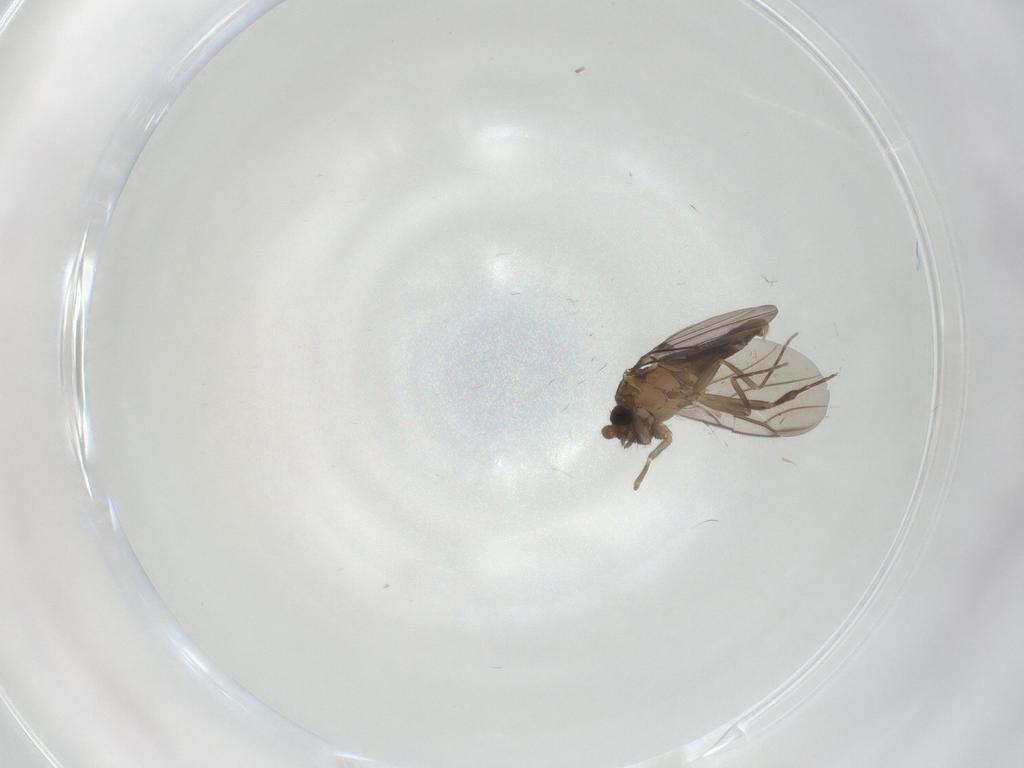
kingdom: Animalia
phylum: Arthropoda
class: Insecta
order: Diptera
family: Phoridae
